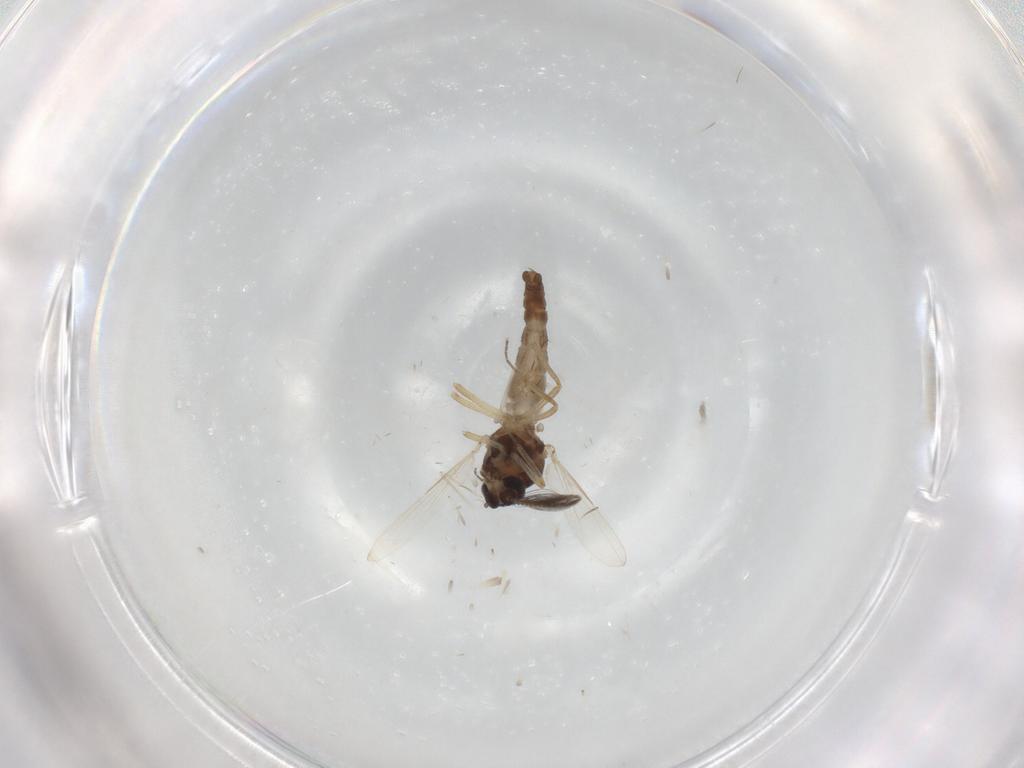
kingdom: Animalia
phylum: Arthropoda
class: Insecta
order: Diptera
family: Ceratopogonidae
